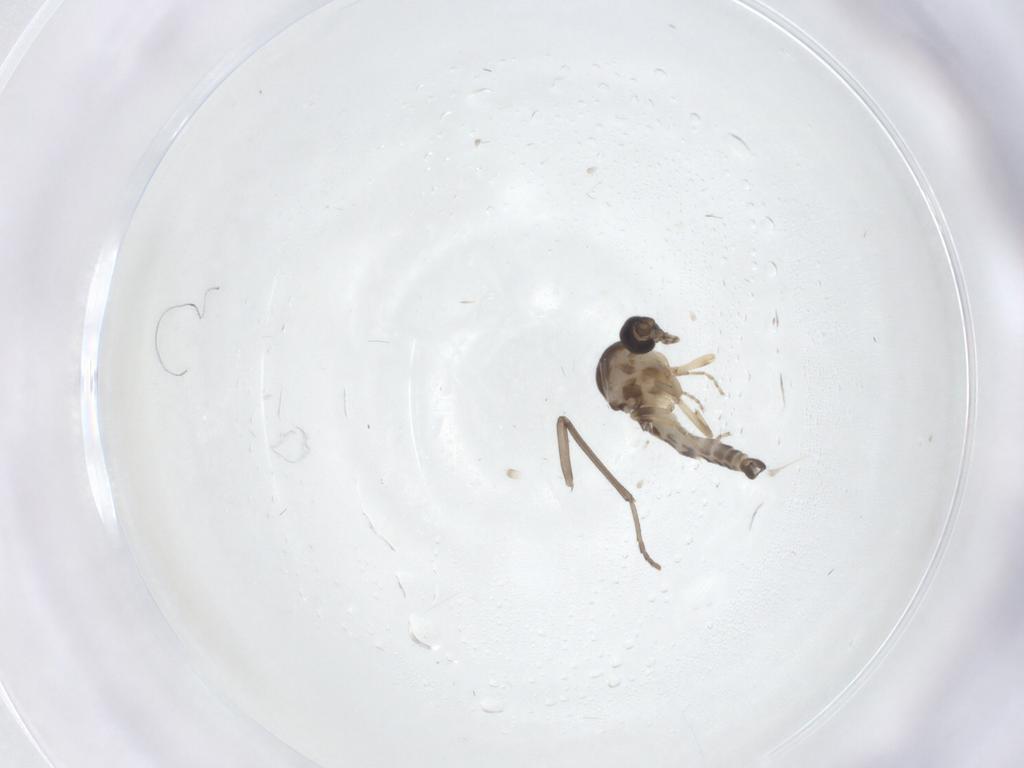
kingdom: Animalia
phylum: Arthropoda
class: Insecta
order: Diptera
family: Ceratopogonidae
